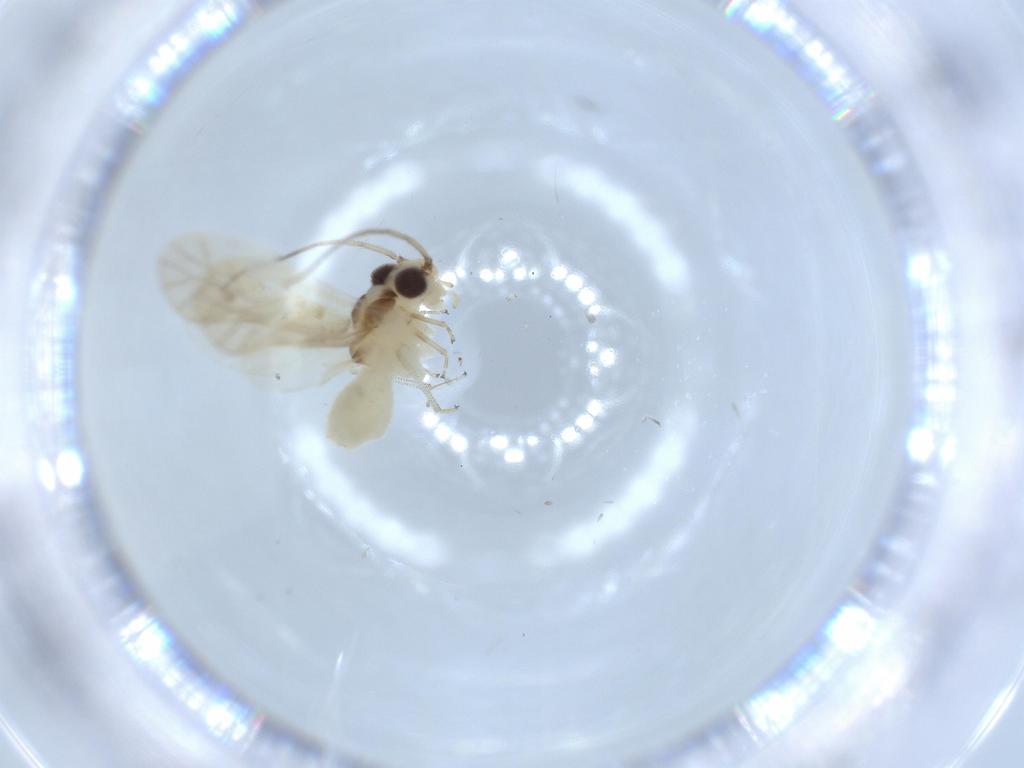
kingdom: Animalia
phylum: Arthropoda
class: Insecta
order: Psocodea
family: Caeciliusidae
